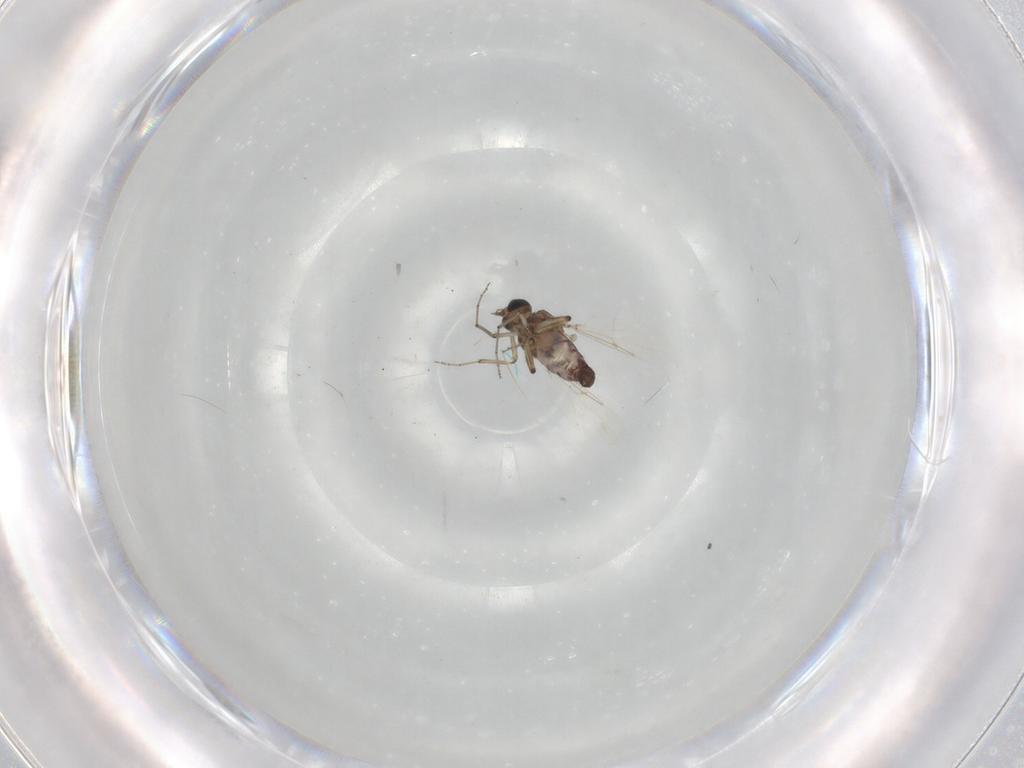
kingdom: Animalia
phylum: Arthropoda
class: Insecta
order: Diptera
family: Ceratopogonidae
